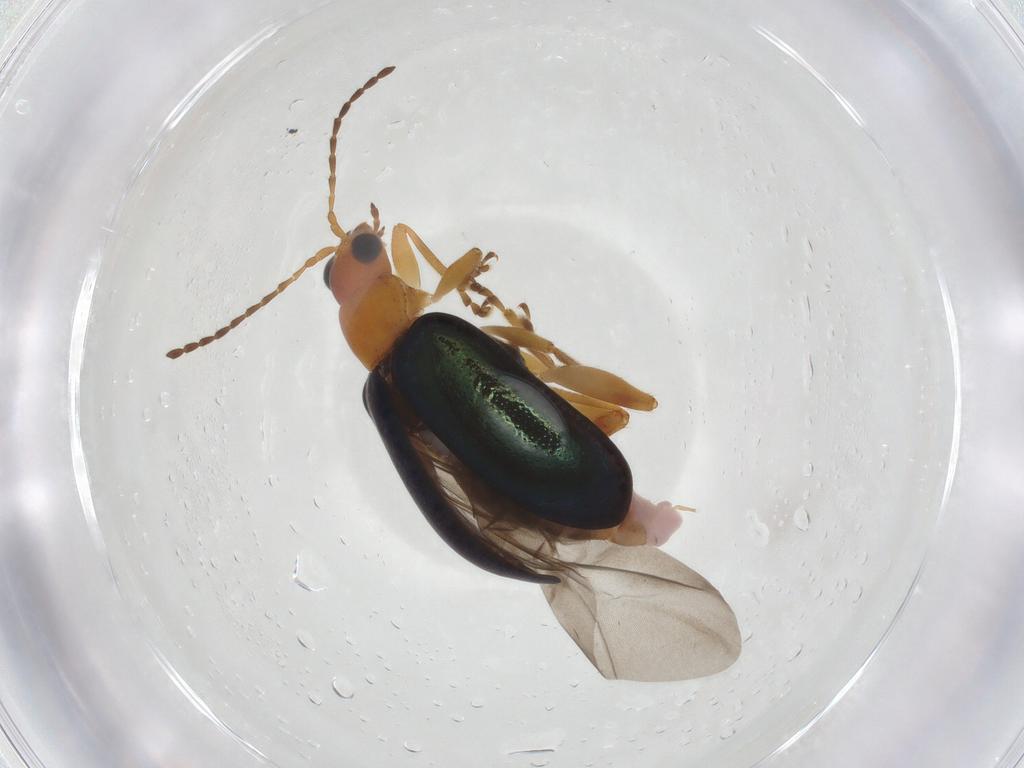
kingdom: Animalia
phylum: Arthropoda
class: Insecta
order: Coleoptera
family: Chrysomelidae
